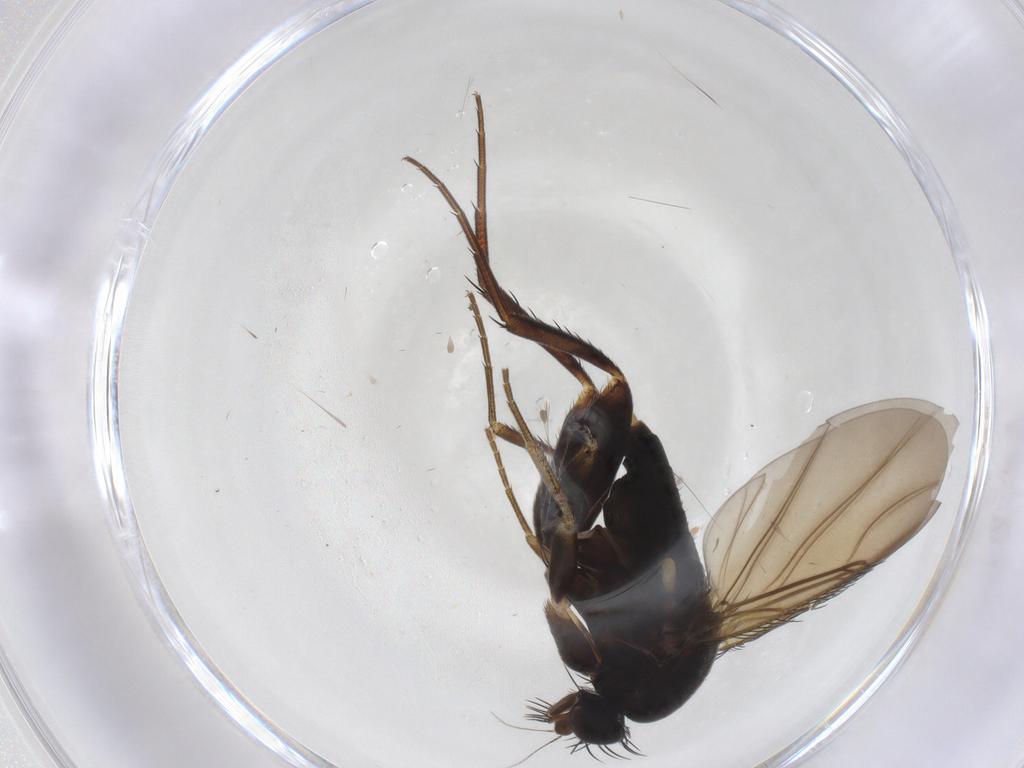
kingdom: Animalia
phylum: Arthropoda
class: Insecta
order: Diptera
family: Phoridae
